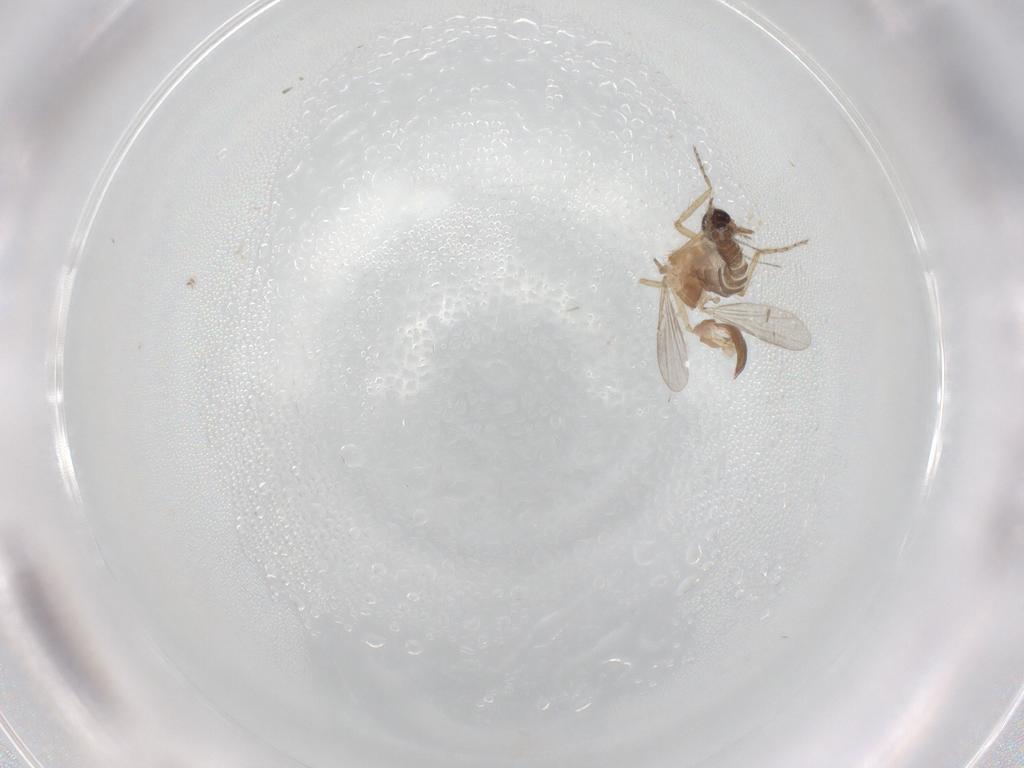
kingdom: Animalia
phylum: Arthropoda
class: Insecta
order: Diptera
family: Ceratopogonidae
